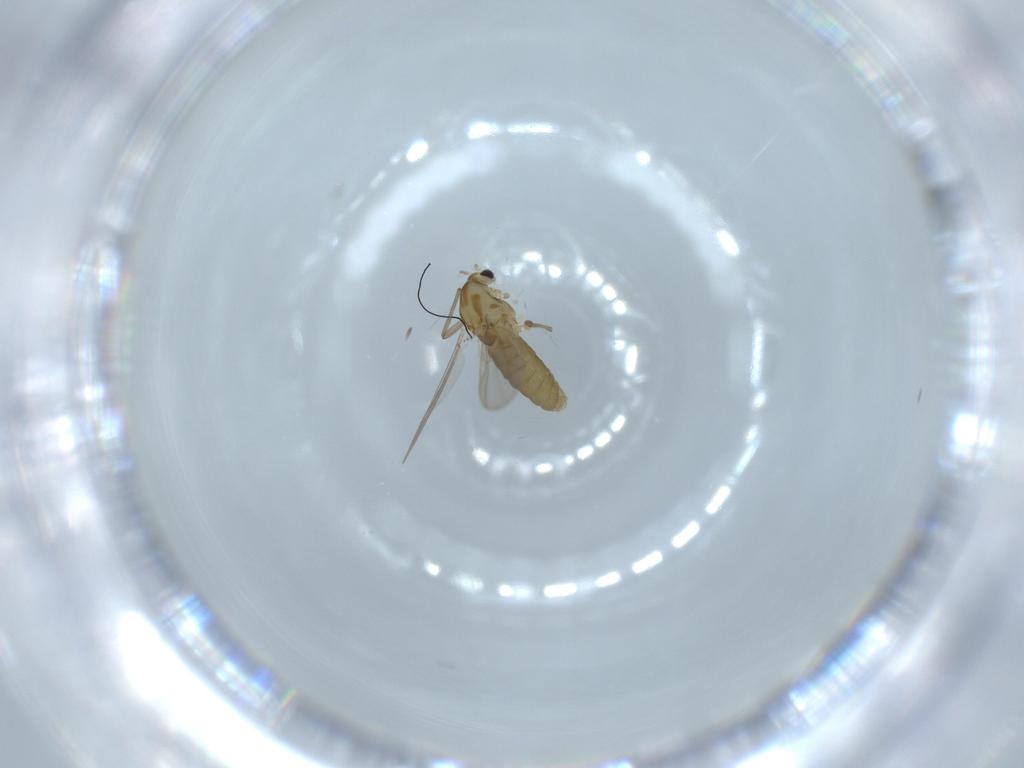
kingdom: Animalia
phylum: Arthropoda
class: Insecta
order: Diptera
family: Chironomidae
